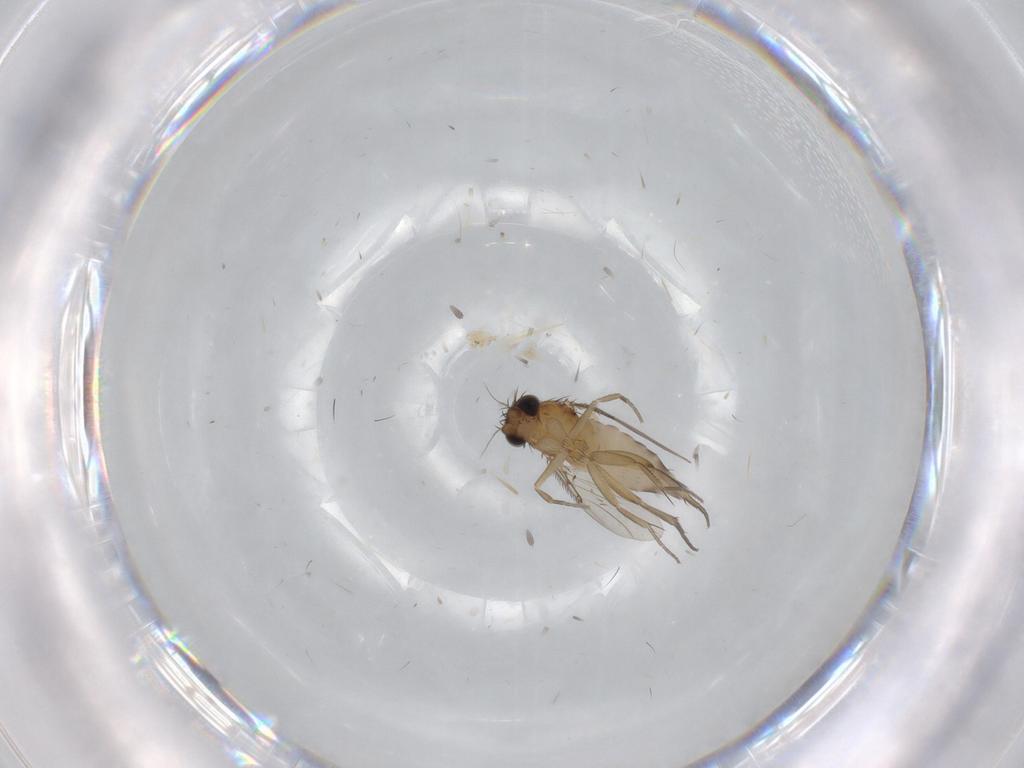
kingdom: Animalia
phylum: Arthropoda
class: Insecta
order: Diptera
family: Phoridae
